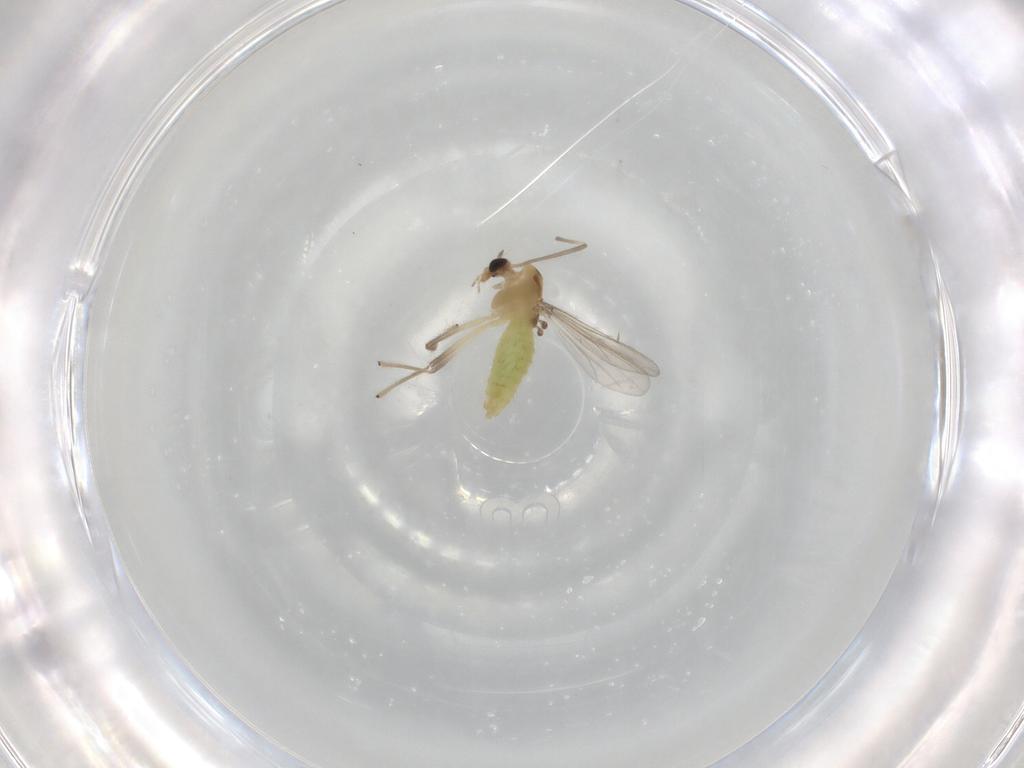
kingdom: Animalia
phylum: Arthropoda
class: Insecta
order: Diptera
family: Chironomidae
